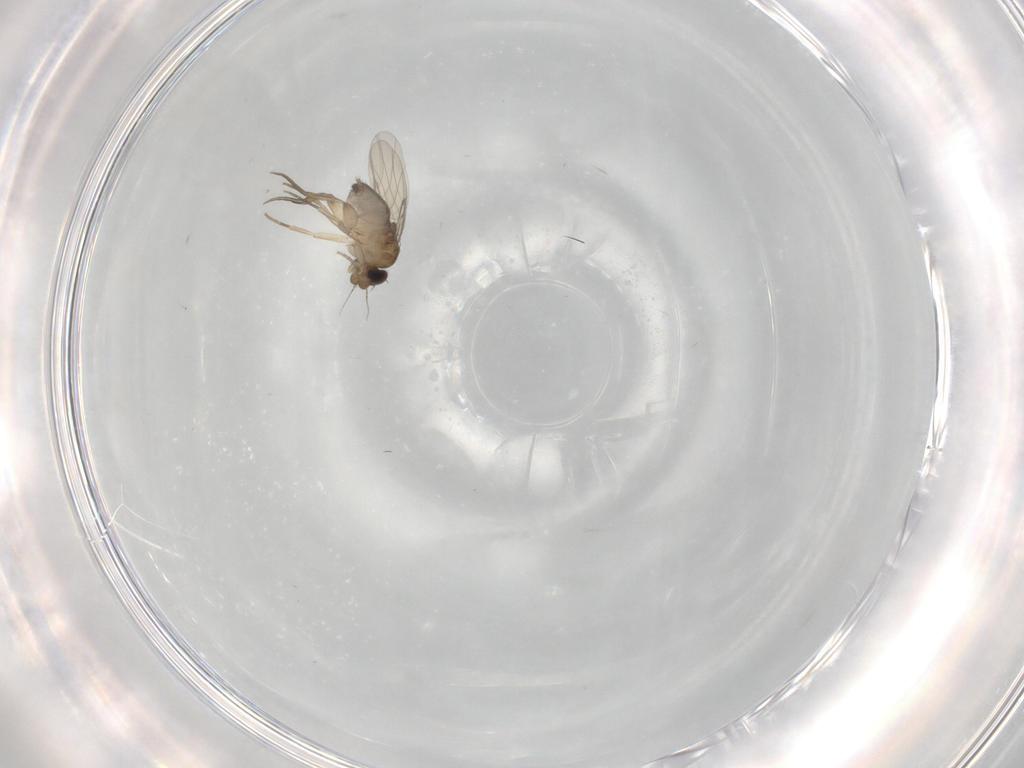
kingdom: Animalia
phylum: Arthropoda
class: Insecta
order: Diptera
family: Phoridae
